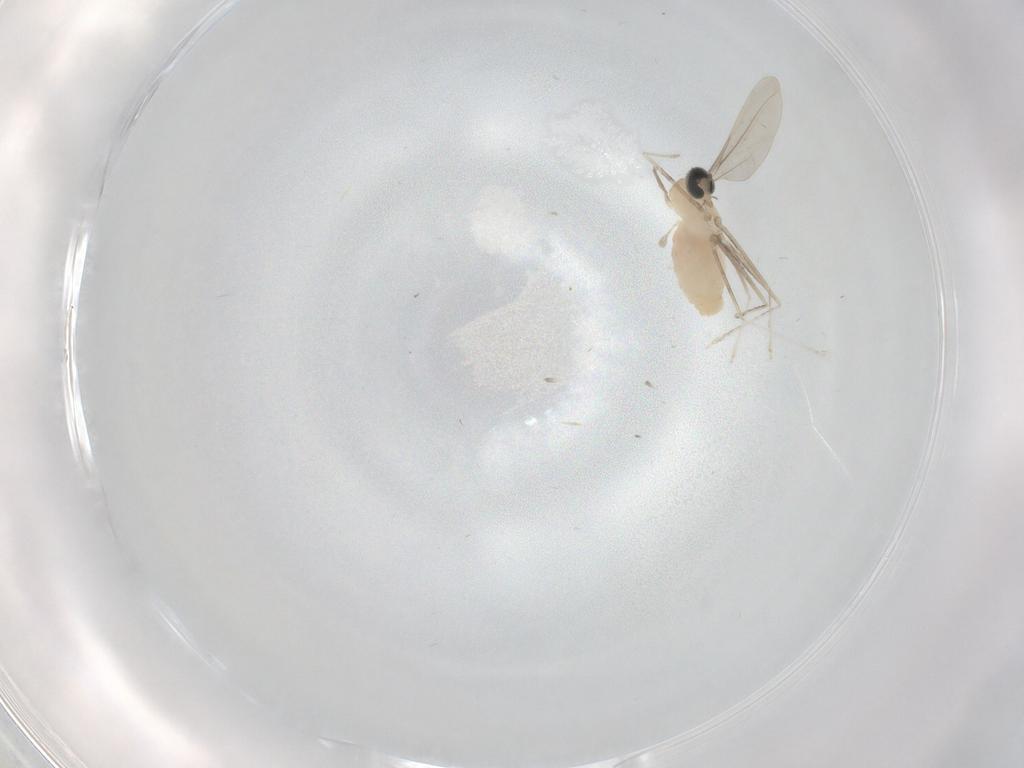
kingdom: Animalia
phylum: Arthropoda
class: Insecta
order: Diptera
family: Cecidomyiidae
